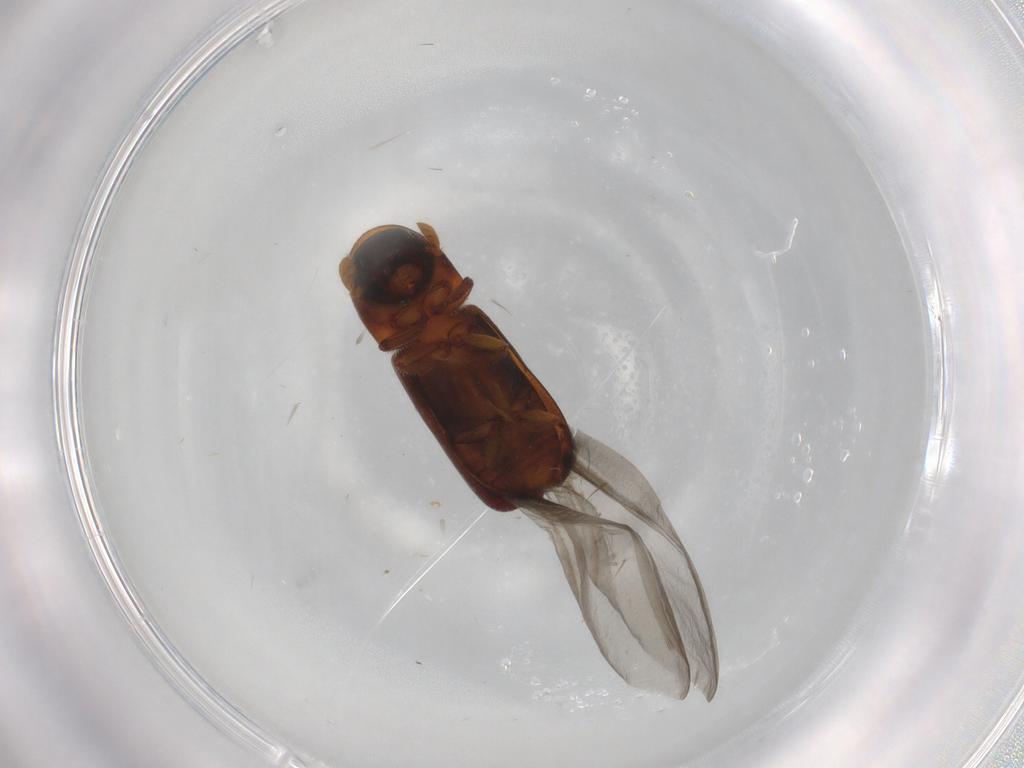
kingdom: Animalia
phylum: Arthropoda
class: Insecta
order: Coleoptera
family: Curculionidae
